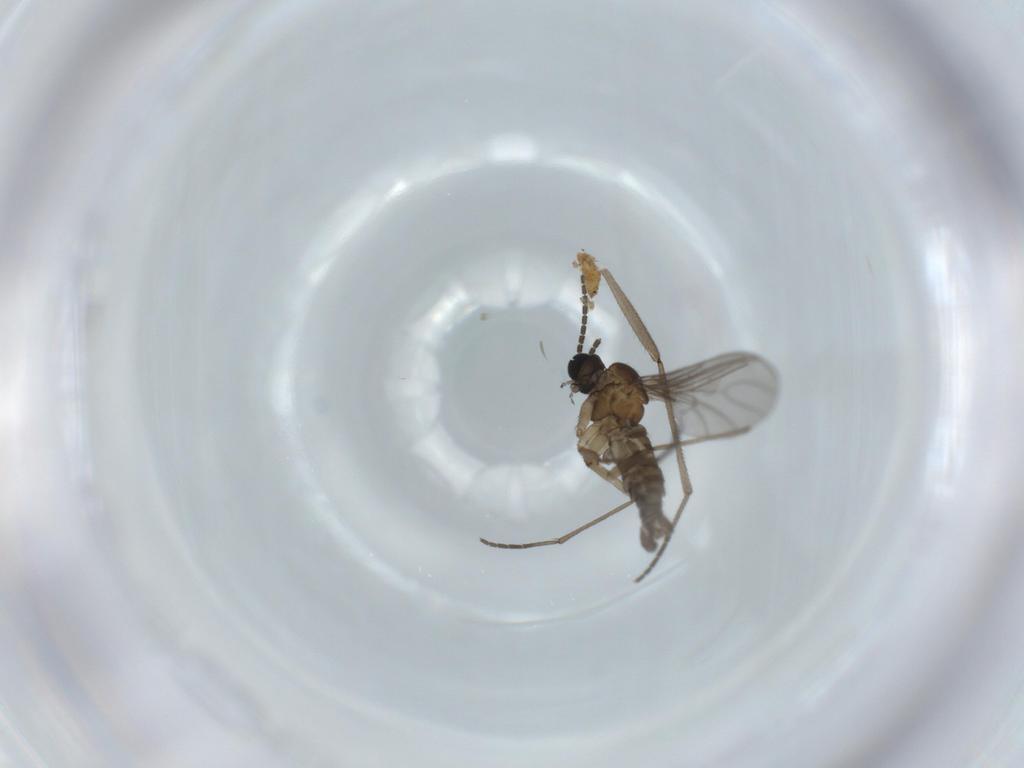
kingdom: Animalia
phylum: Arthropoda
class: Insecta
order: Diptera
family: Sciaridae
